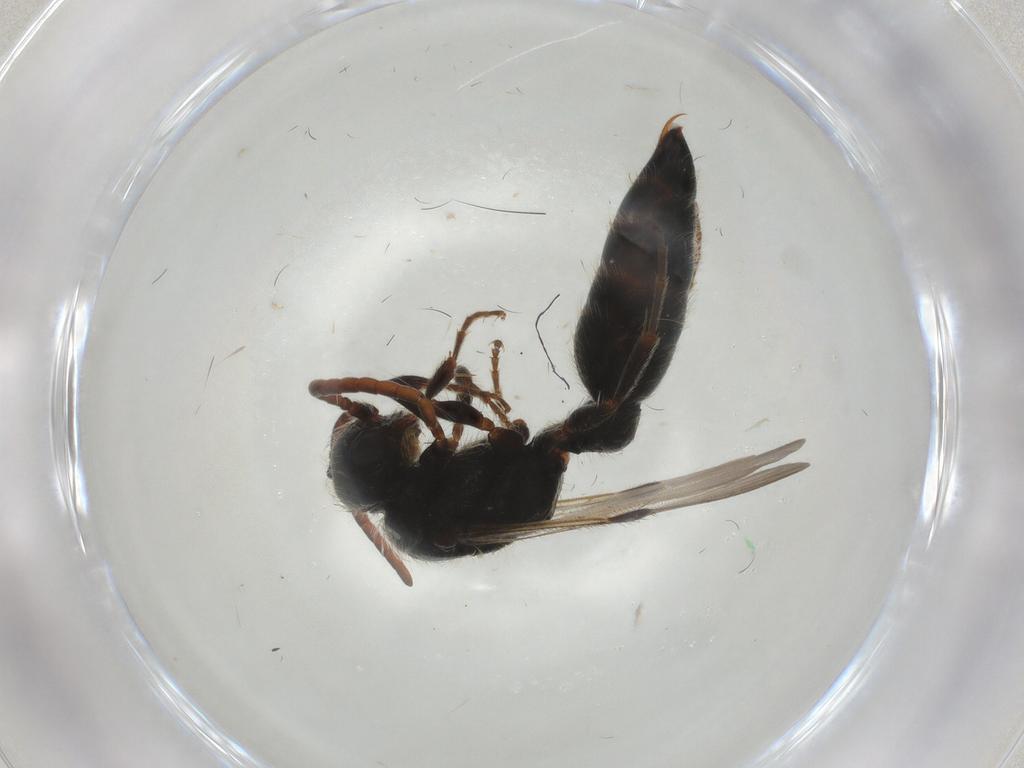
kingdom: Animalia
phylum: Arthropoda
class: Insecta
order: Hymenoptera
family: Tiphiidae
